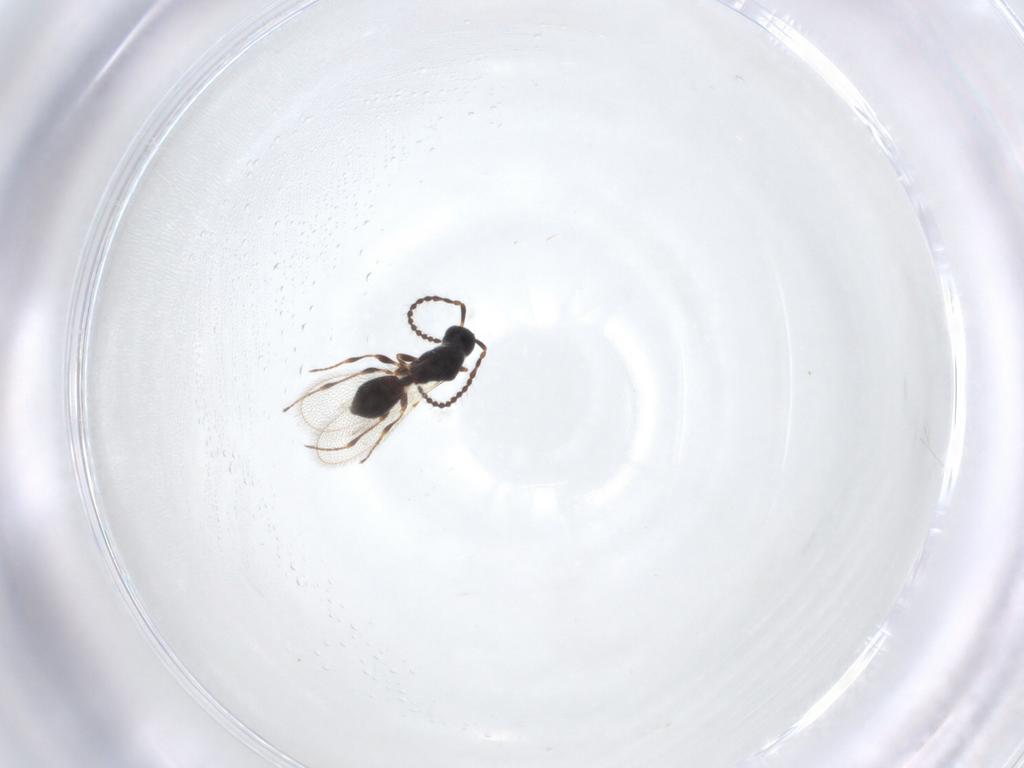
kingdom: Animalia
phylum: Arthropoda
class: Insecta
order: Hymenoptera
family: Diapriidae
